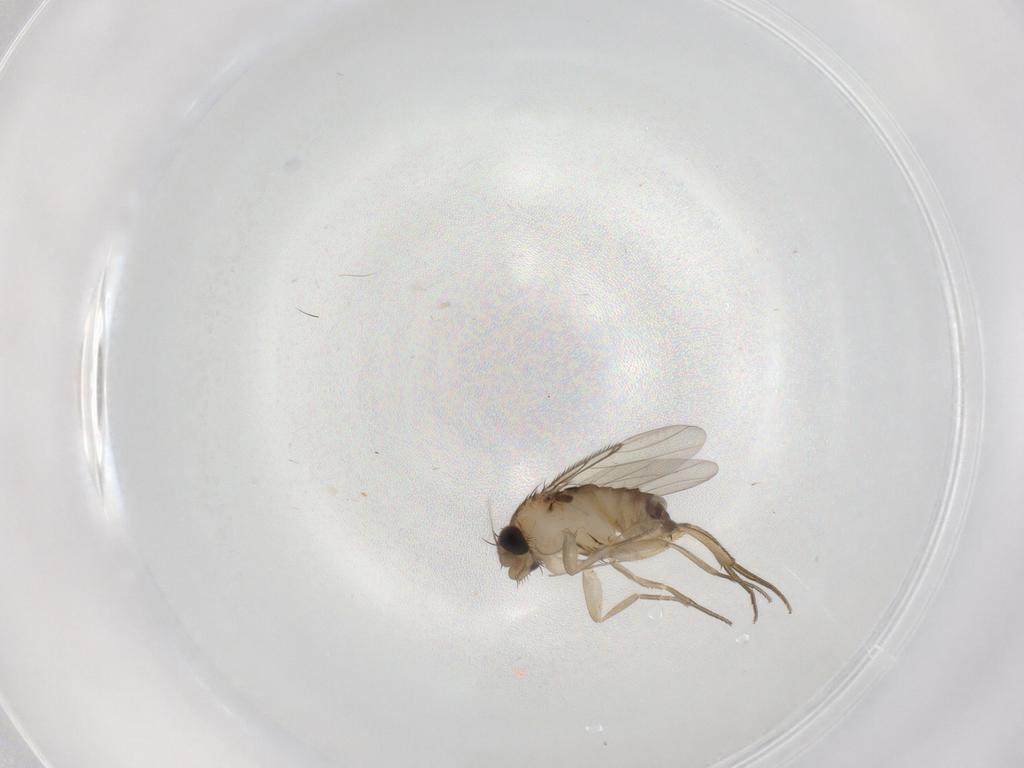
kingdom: Animalia
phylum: Arthropoda
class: Insecta
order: Diptera
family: Phoridae
